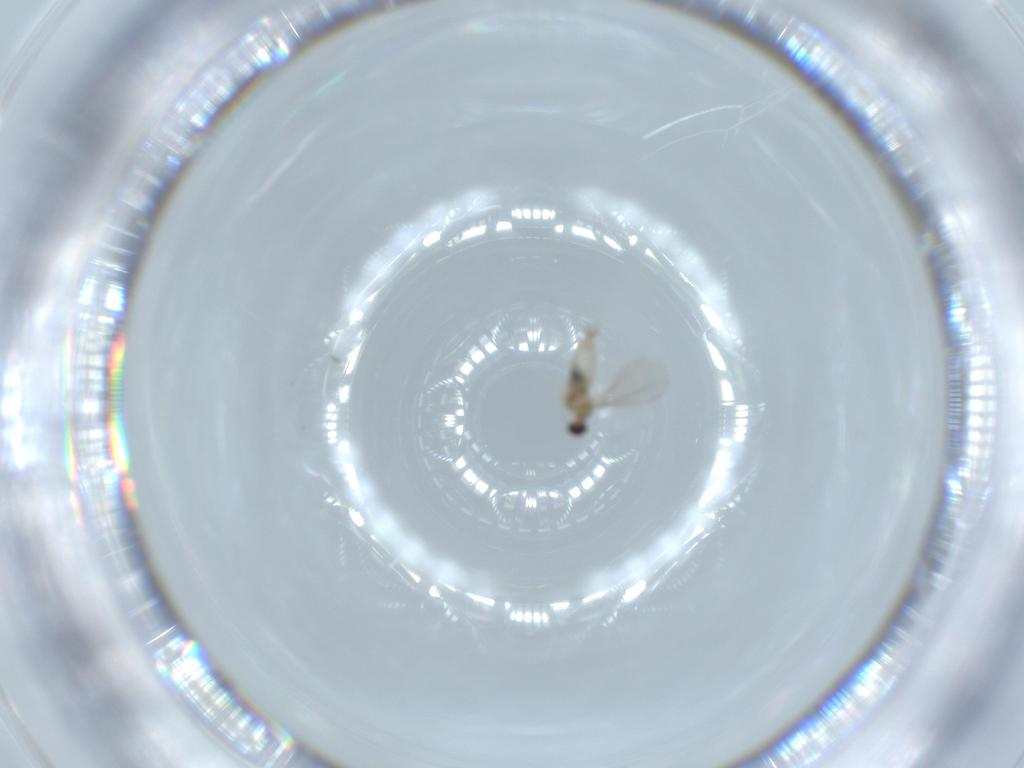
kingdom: Animalia
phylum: Arthropoda
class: Insecta
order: Diptera
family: Cecidomyiidae
